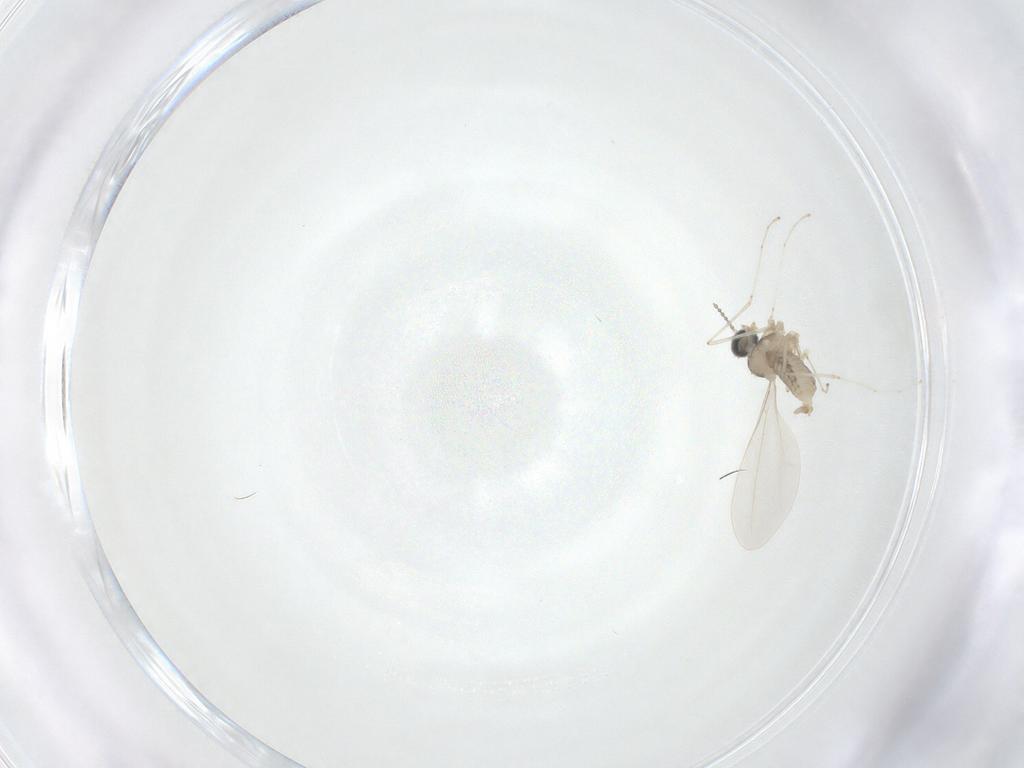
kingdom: Animalia
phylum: Arthropoda
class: Insecta
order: Diptera
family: Cecidomyiidae
